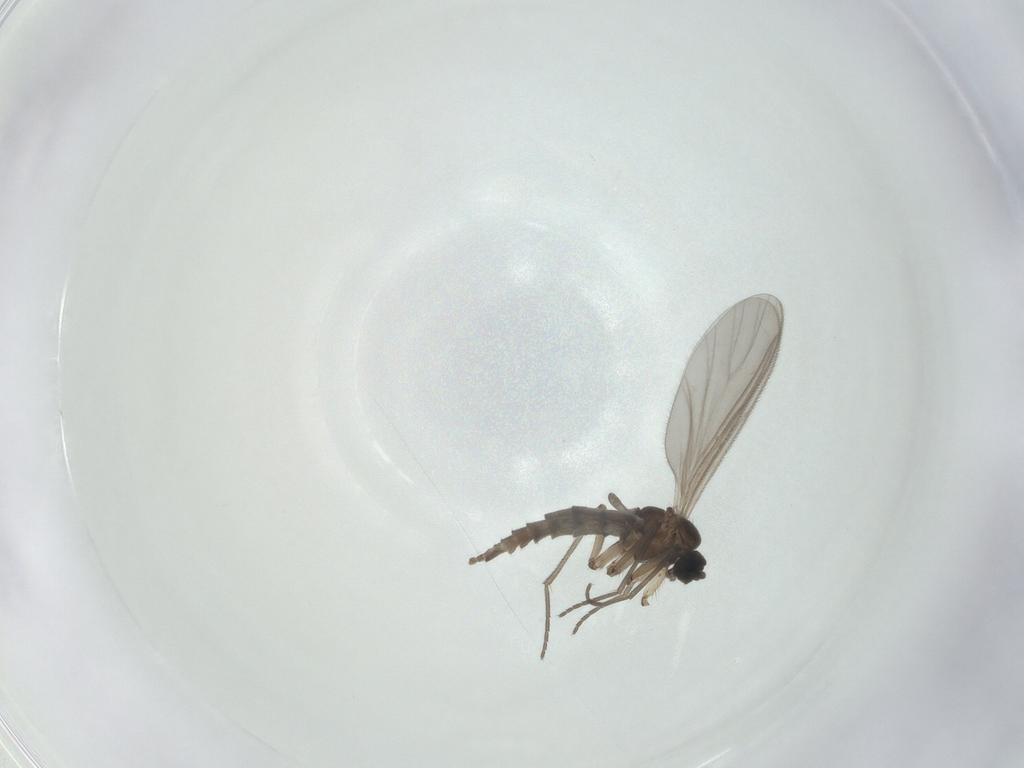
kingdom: Animalia
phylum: Arthropoda
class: Insecta
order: Diptera
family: Sciaridae
